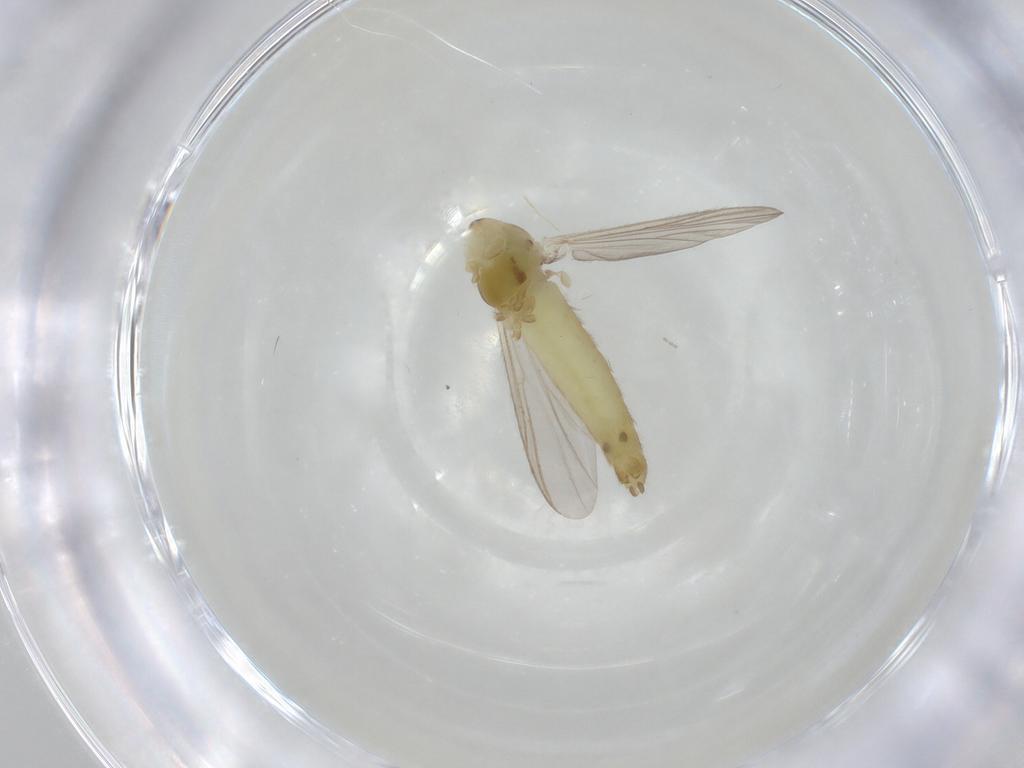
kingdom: Animalia
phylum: Arthropoda
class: Insecta
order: Diptera
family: Chironomidae
